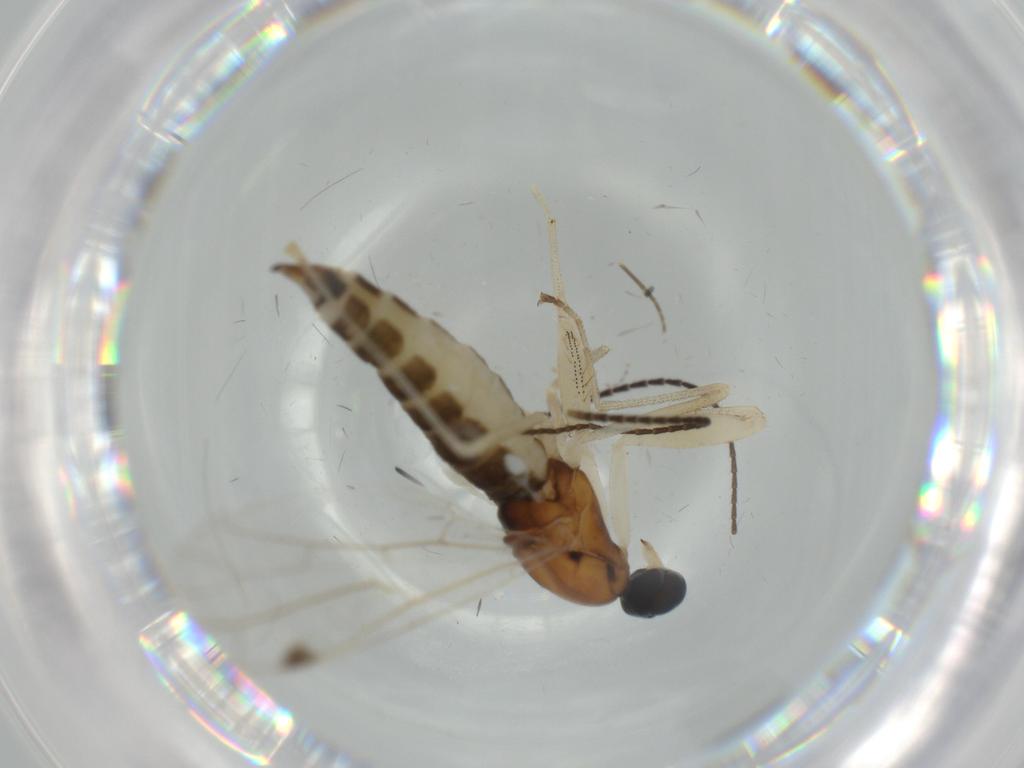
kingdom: Animalia
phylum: Arthropoda
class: Insecta
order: Diptera
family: Empididae
